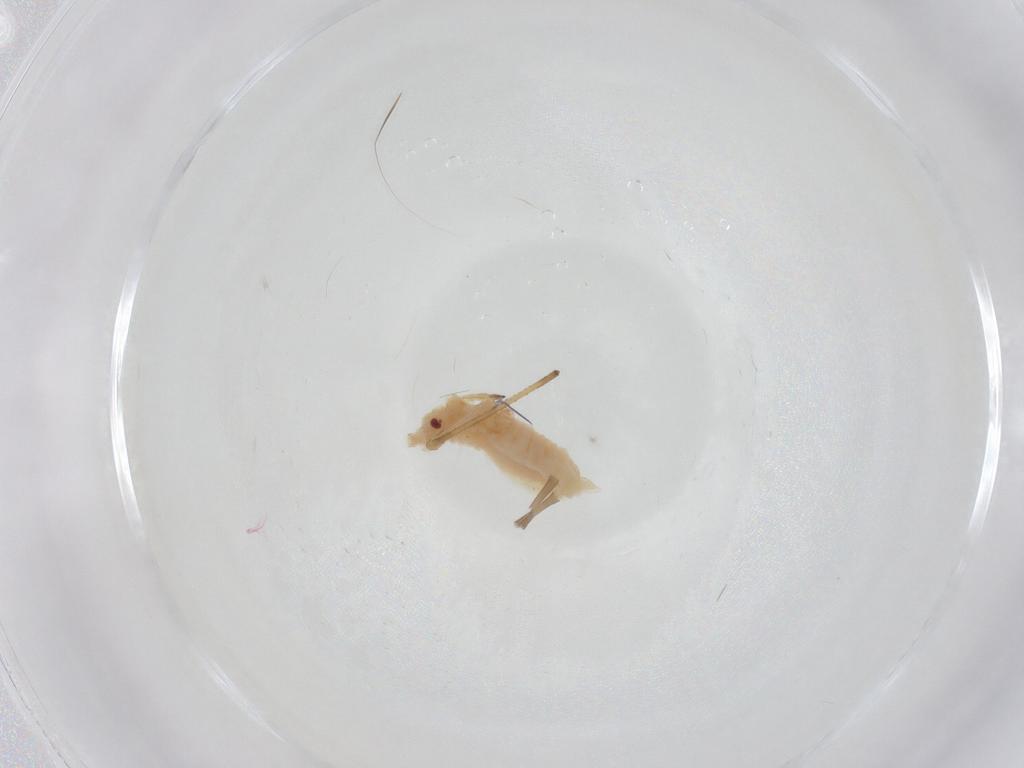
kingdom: Animalia
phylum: Arthropoda
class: Insecta
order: Hemiptera
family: Aphididae
